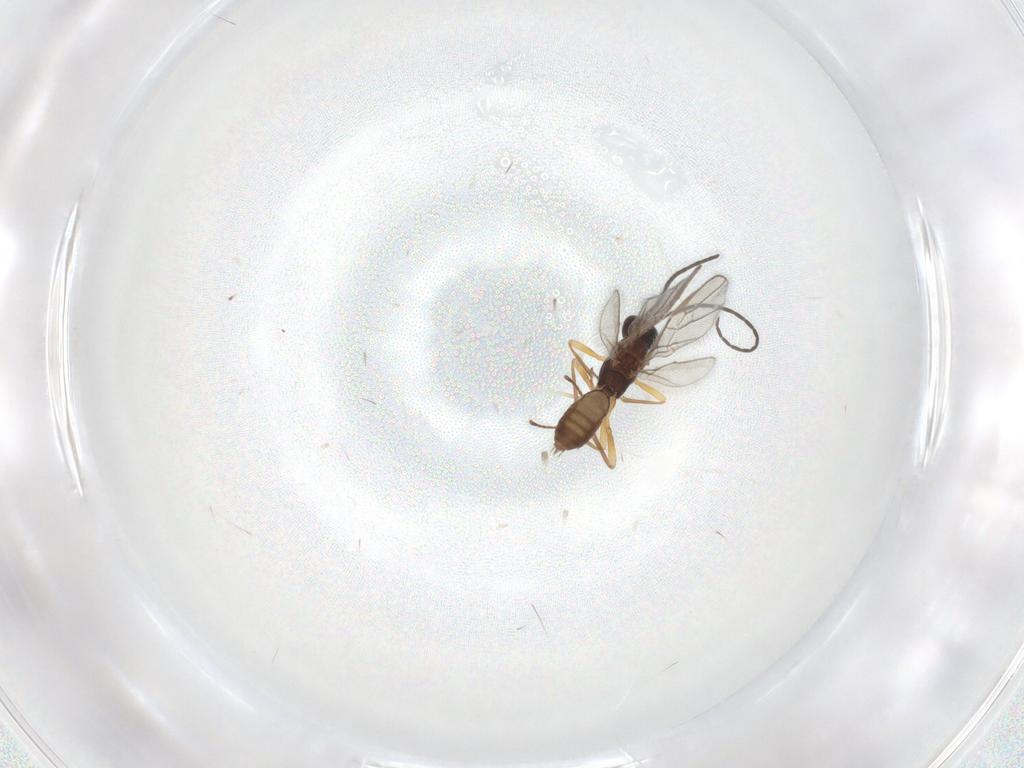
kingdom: Animalia
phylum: Arthropoda
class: Insecta
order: Hymenoptera
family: Braconidae
